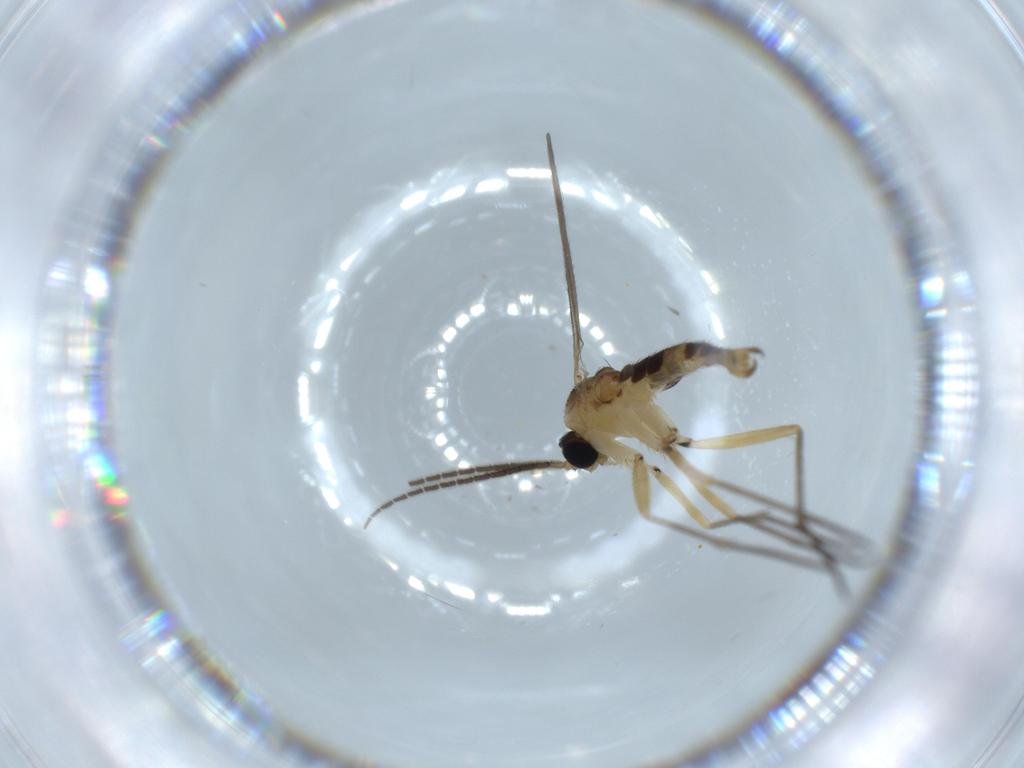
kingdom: Animalia
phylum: Arthropoda
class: Insecta
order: Diptera
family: Sciaridae
